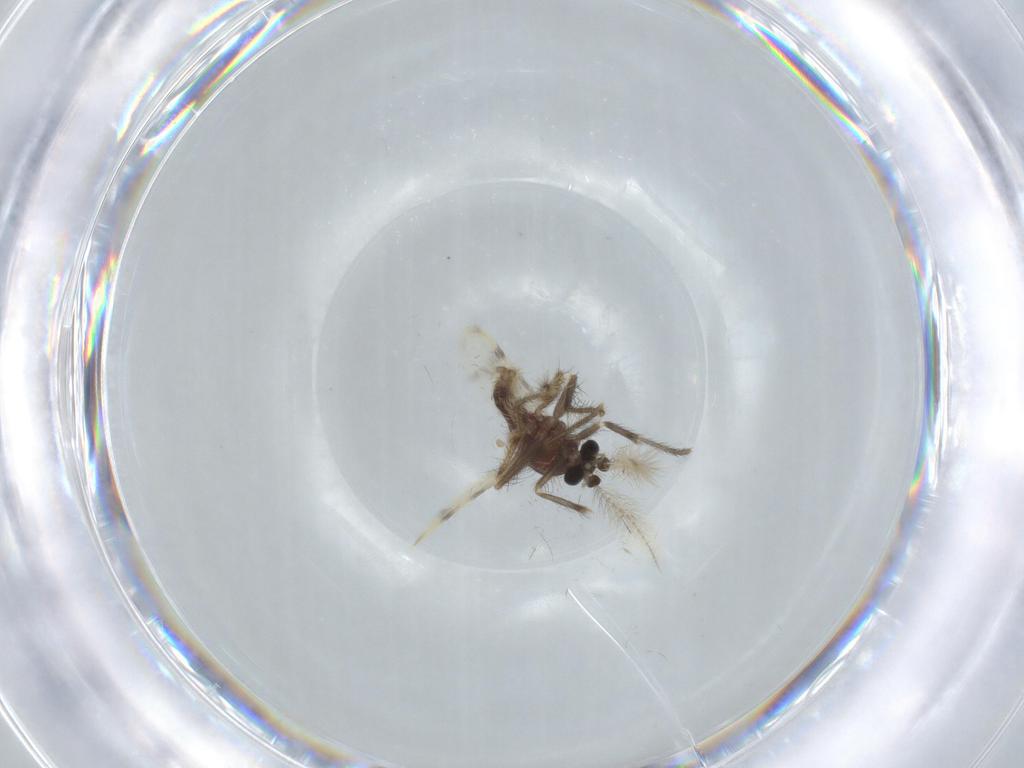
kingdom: Animalia
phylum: Arthropoda
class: Insecta
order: Diptera
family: Corethrellidae
